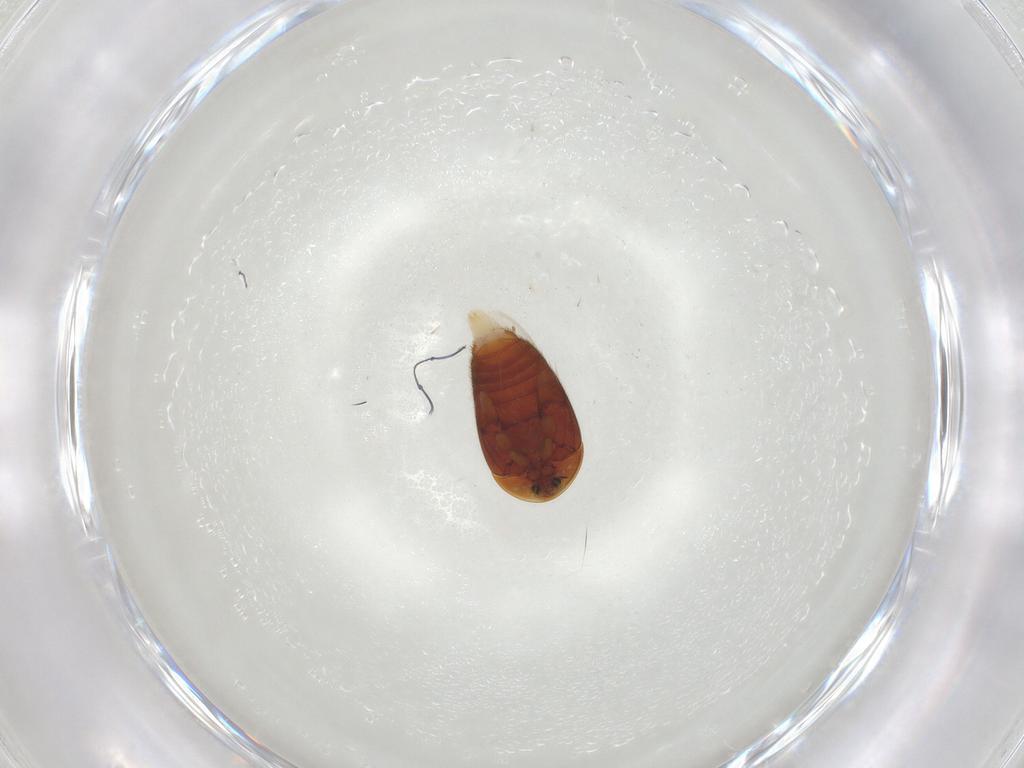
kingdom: Animalia
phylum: Arthropoda
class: Insecta
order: Coleoptera
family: Corylophidae
